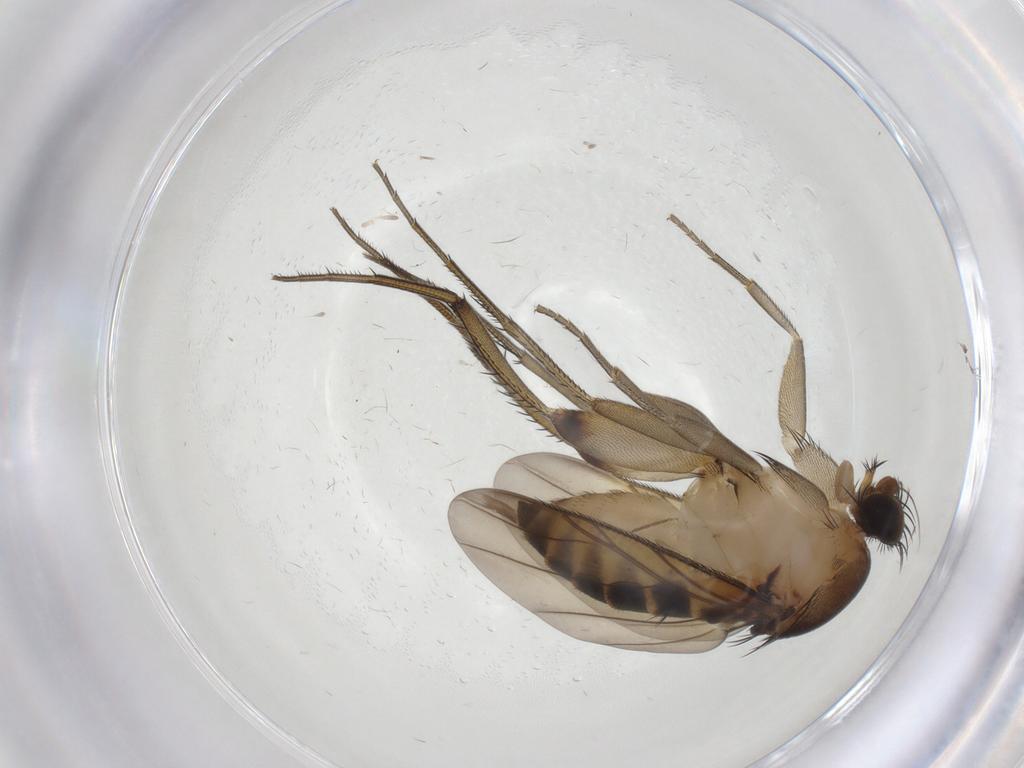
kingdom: Animalia
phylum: Arthropoda
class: Insecta
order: Diptera
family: Phoridae
